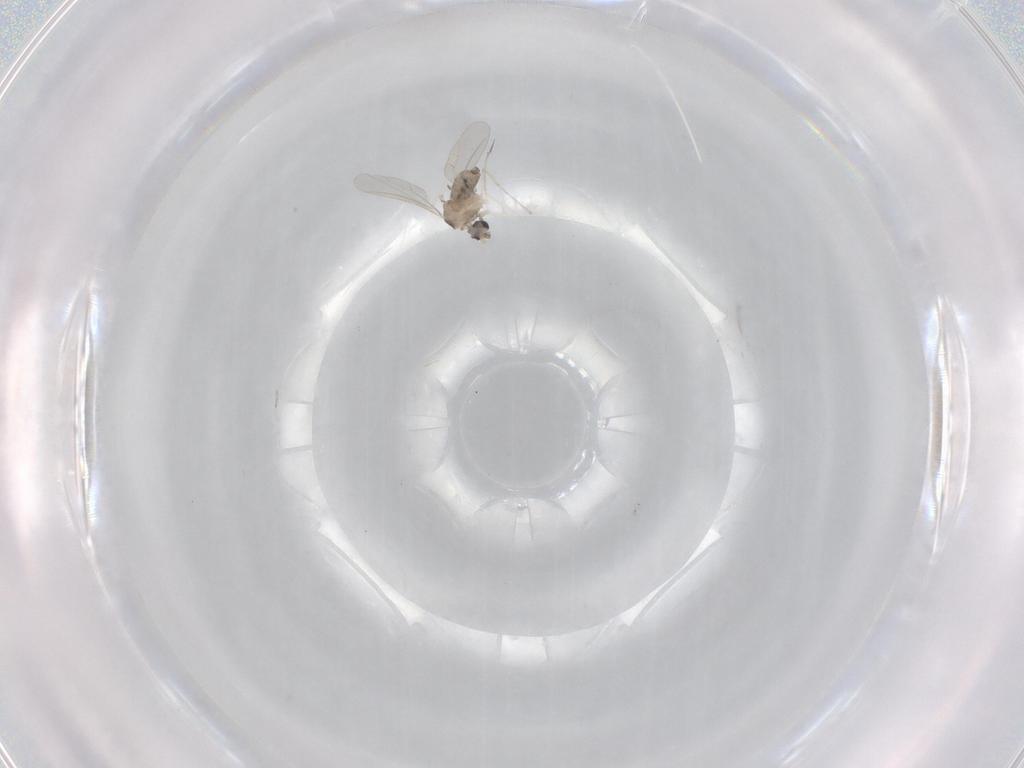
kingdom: Animalia
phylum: Arthropoda
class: Insecta
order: Diptera
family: Cecidomyiidae
